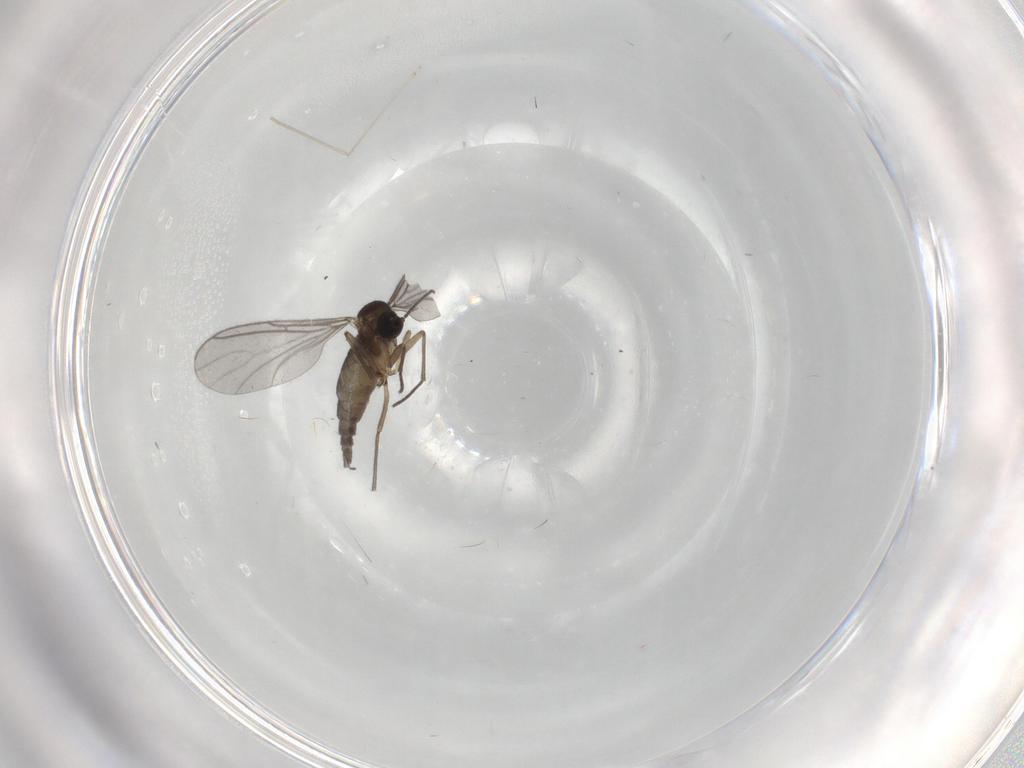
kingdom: Animalia
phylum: Arthropoda
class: Insecta
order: Diptera
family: Sciaridae
